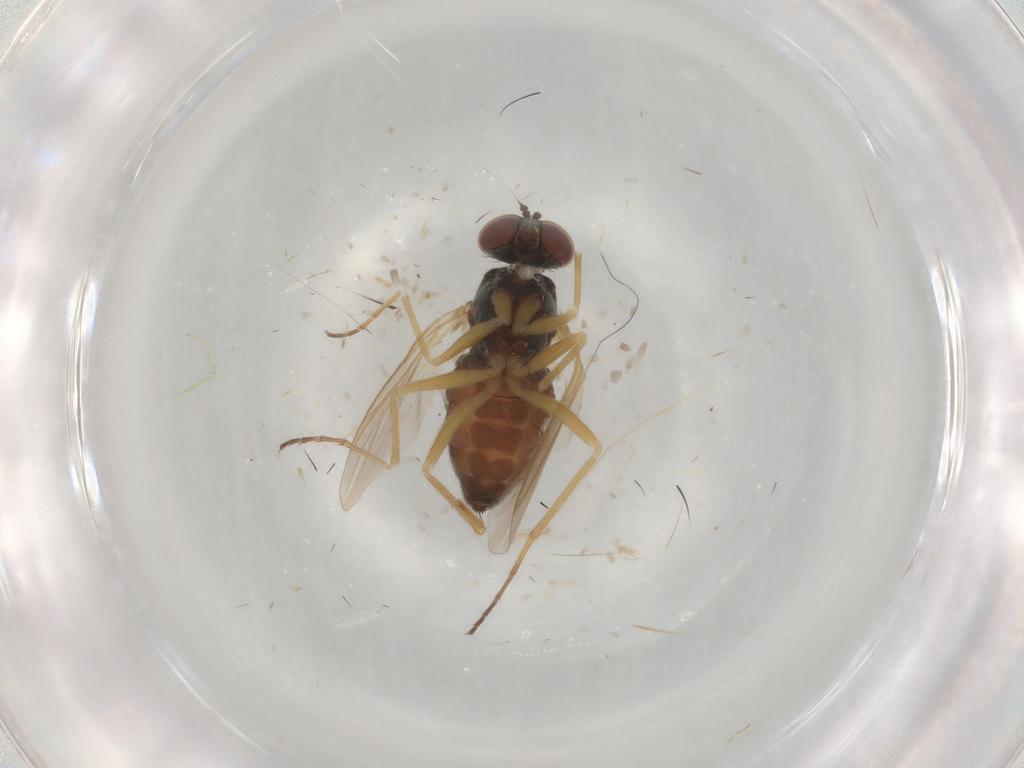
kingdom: Animalia
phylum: Arthropoda
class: Insecta
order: Diptera
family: Dolichopodidae
